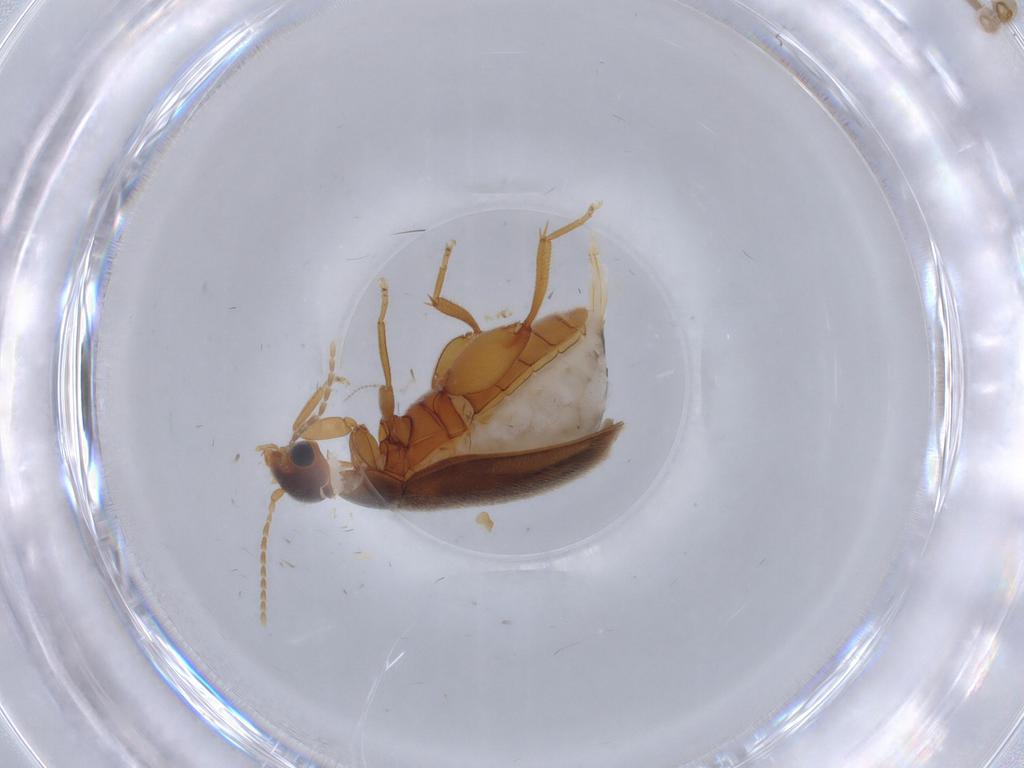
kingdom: Animalia
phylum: Arthropoda
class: Insecta
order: Coleoptera
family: Scirtidae
